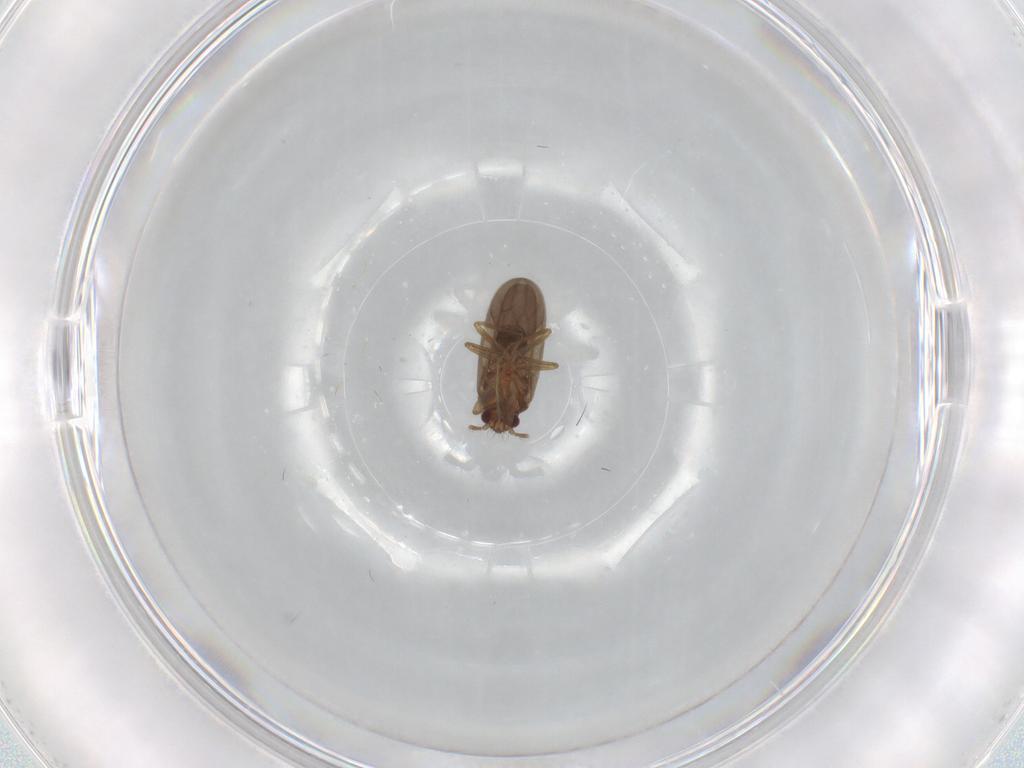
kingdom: Animalia
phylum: Arthropoda
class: Insecta
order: Hemiptera
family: Ceratocombidae
